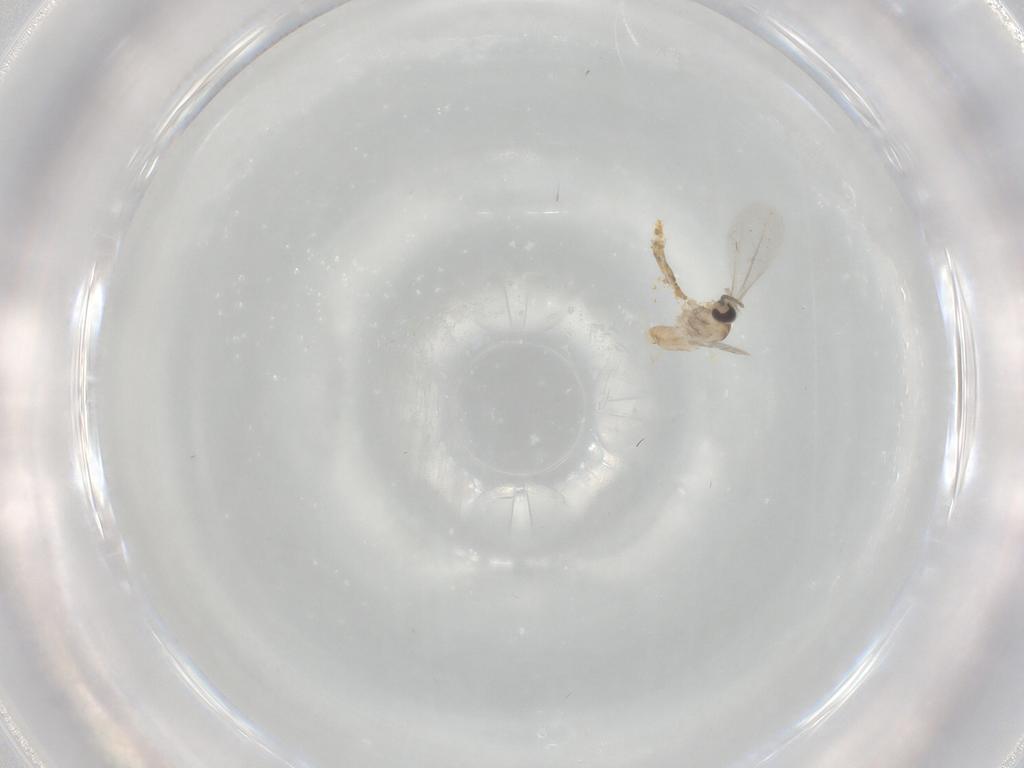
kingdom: Animalia
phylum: Arthropoda
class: Insecta
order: Diptera
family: Cecidomyiidae
